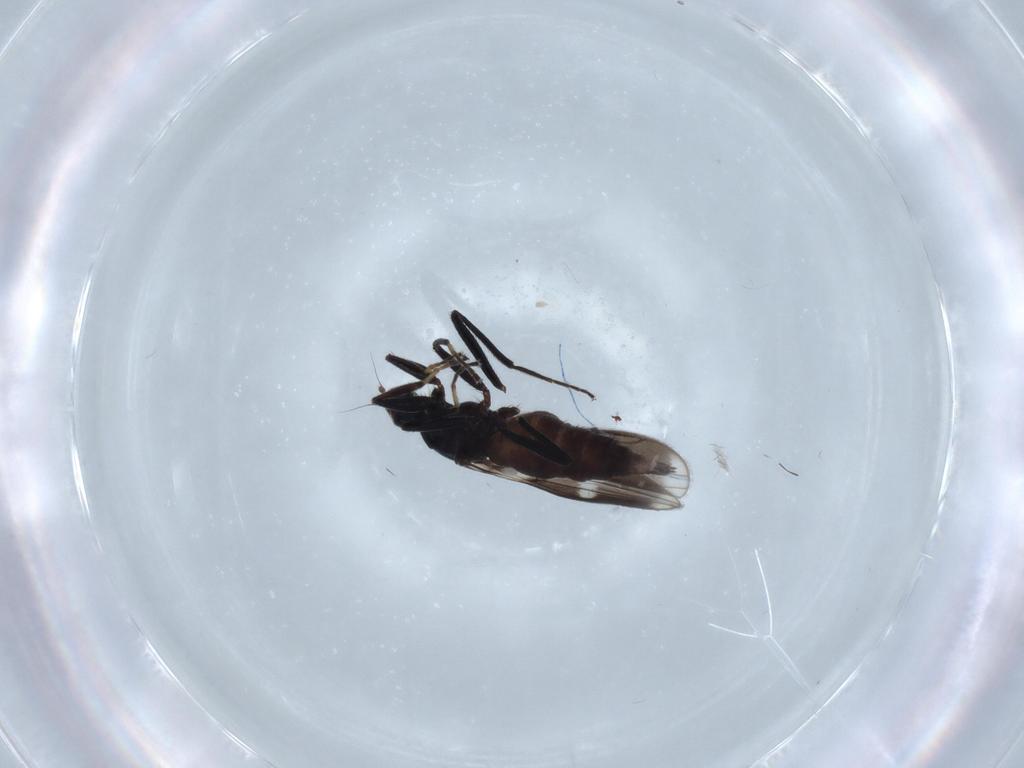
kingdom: Animalia
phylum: Arthropoda
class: Insecta
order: Diptera
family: Hybotidae
